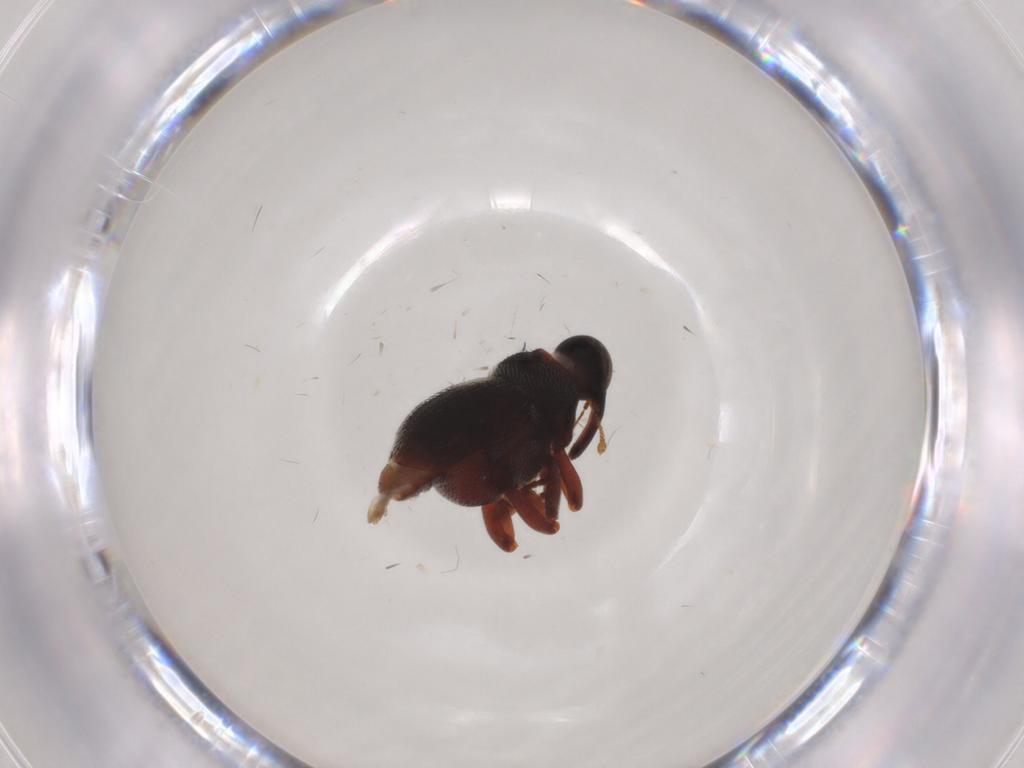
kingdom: Animalia
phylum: Arthropoda
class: Insecta
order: Coleoptera
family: Curculionidae
